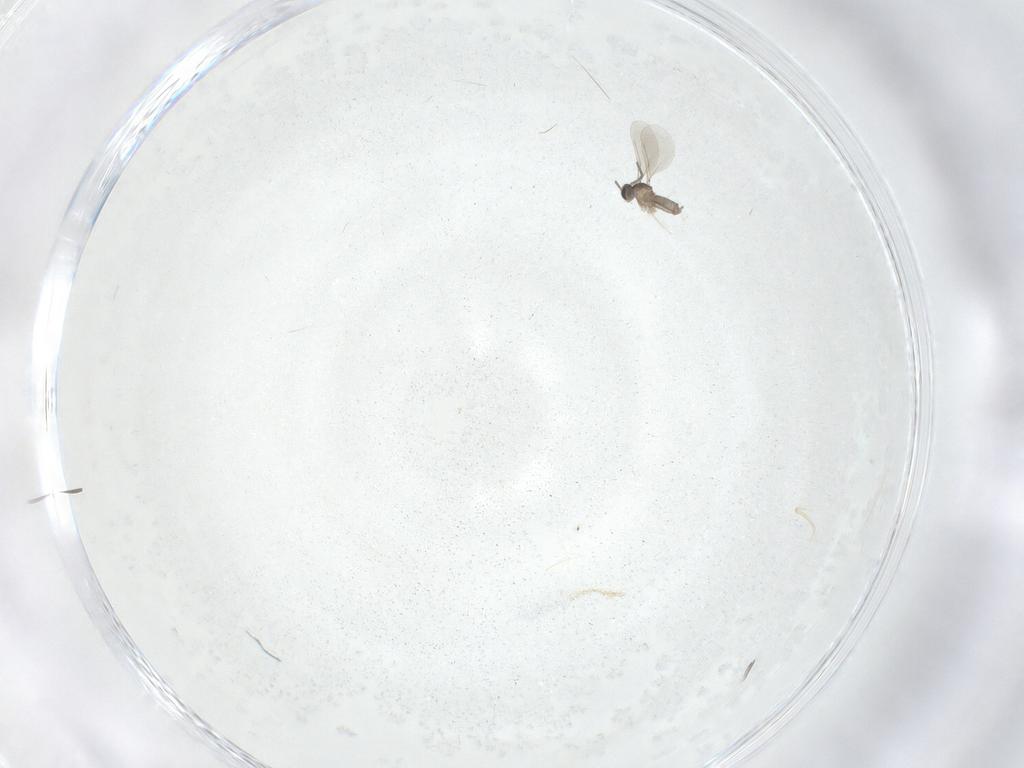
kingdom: Animalia
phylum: Arthropoda
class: Insecta
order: Diptera
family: Cecidomyiidae
